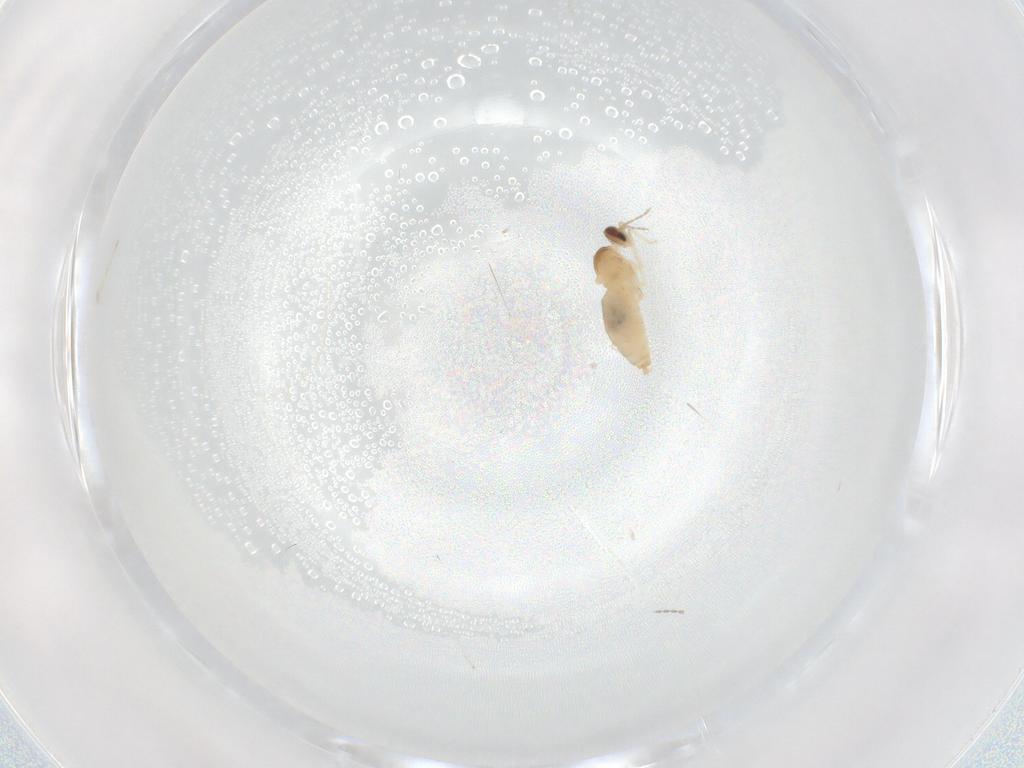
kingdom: Animalia
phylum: Arthropoda
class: Insecta
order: Diptera
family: Cecidomyiidae
